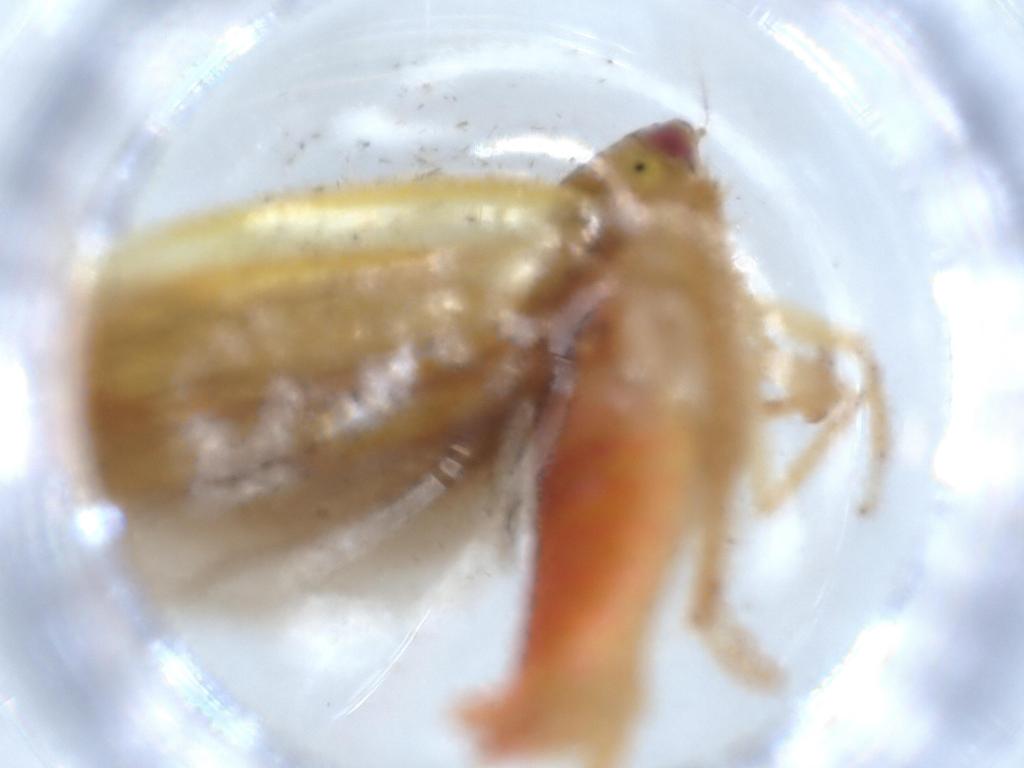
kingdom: Animalia
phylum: Arthropoda
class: Insecta
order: Hemiptera
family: Cicadellidae
